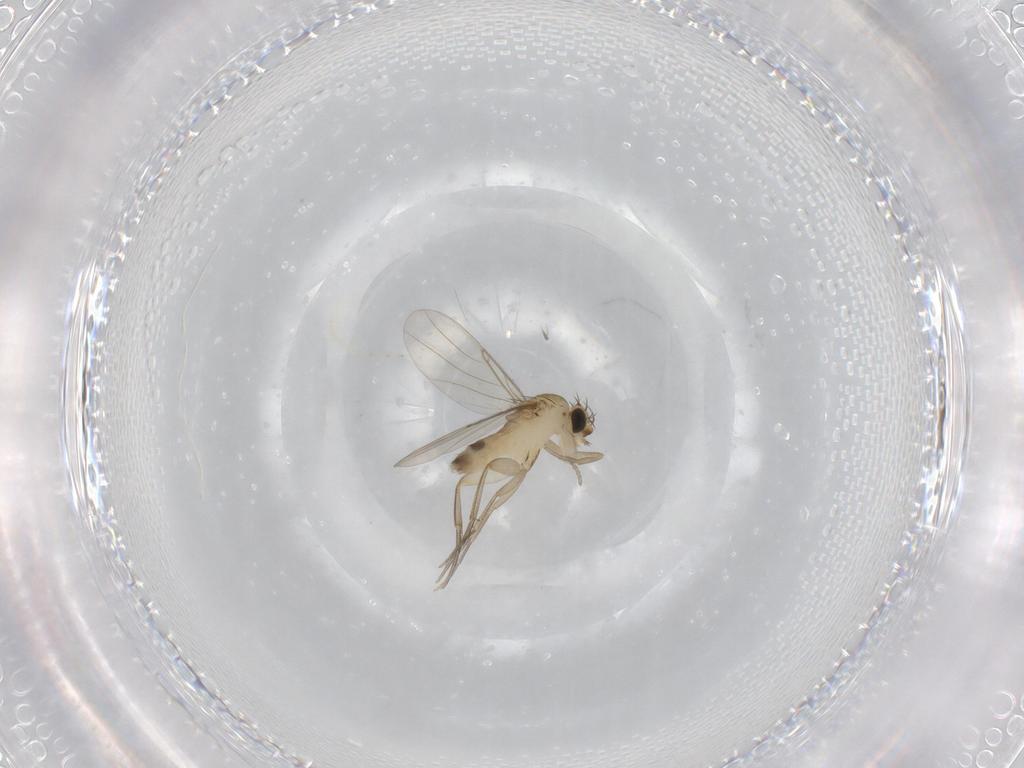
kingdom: Animalia
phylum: Arthropoda
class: Insecta
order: Diptera
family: Phoridae
